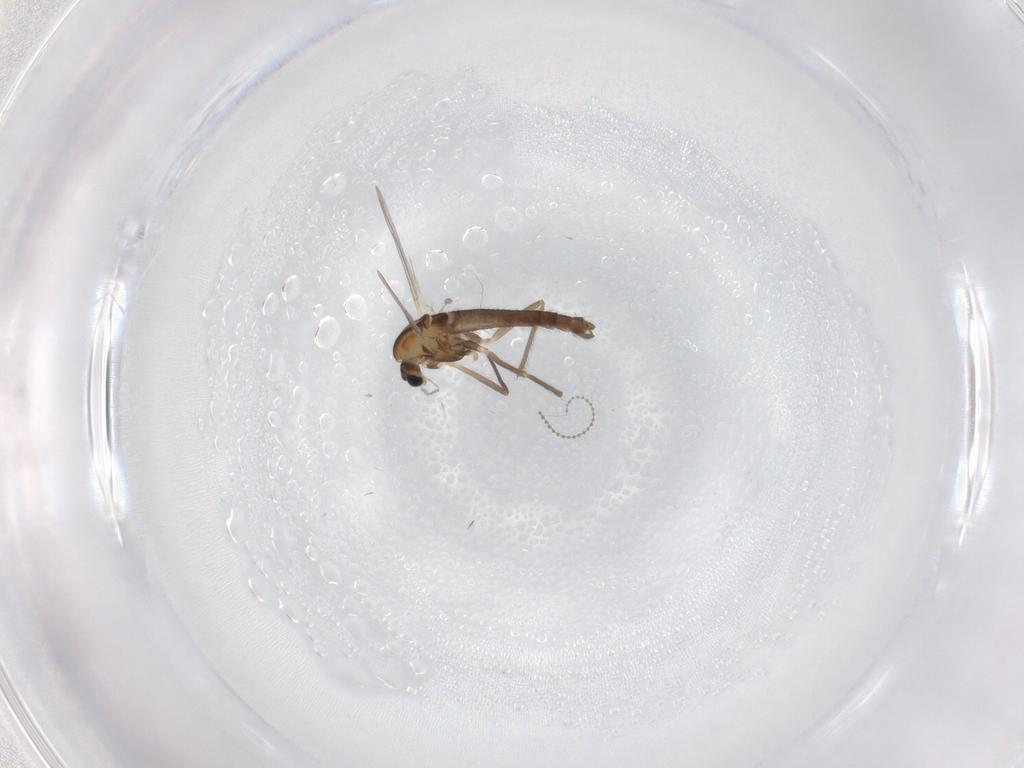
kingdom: Animalia
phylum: Arthropoda
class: Insecta
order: Diptera
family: Chironomidae
